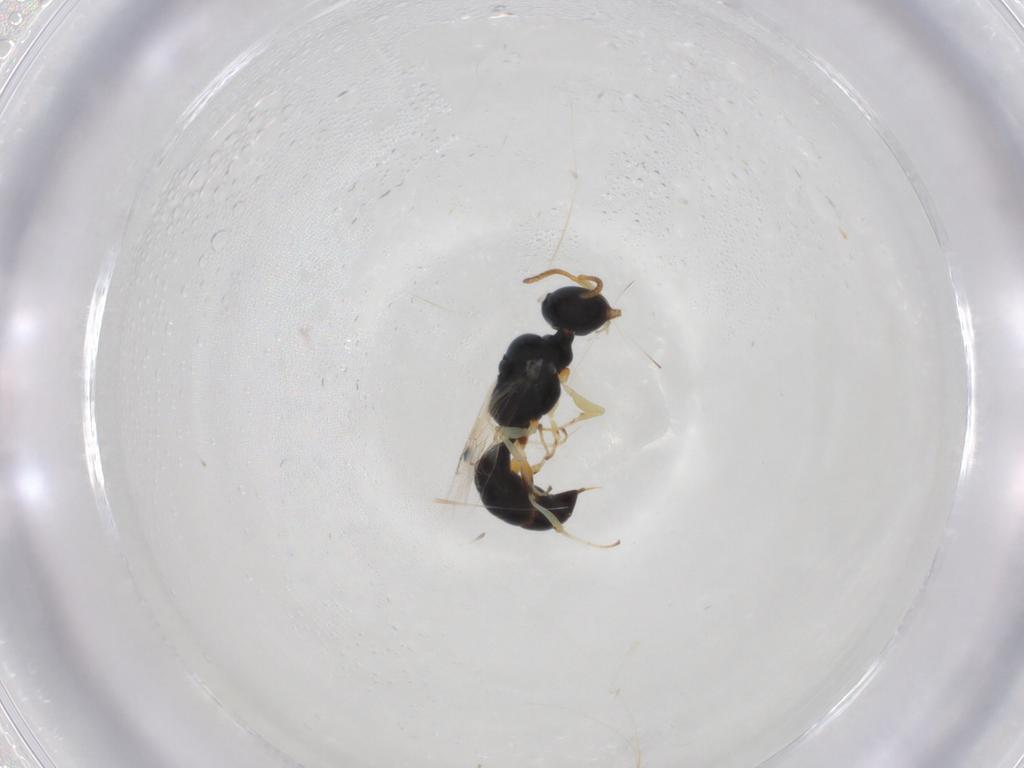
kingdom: Animalia
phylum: Arthropoda
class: Insecta
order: Hymenoptera
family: Pemphredonidae
